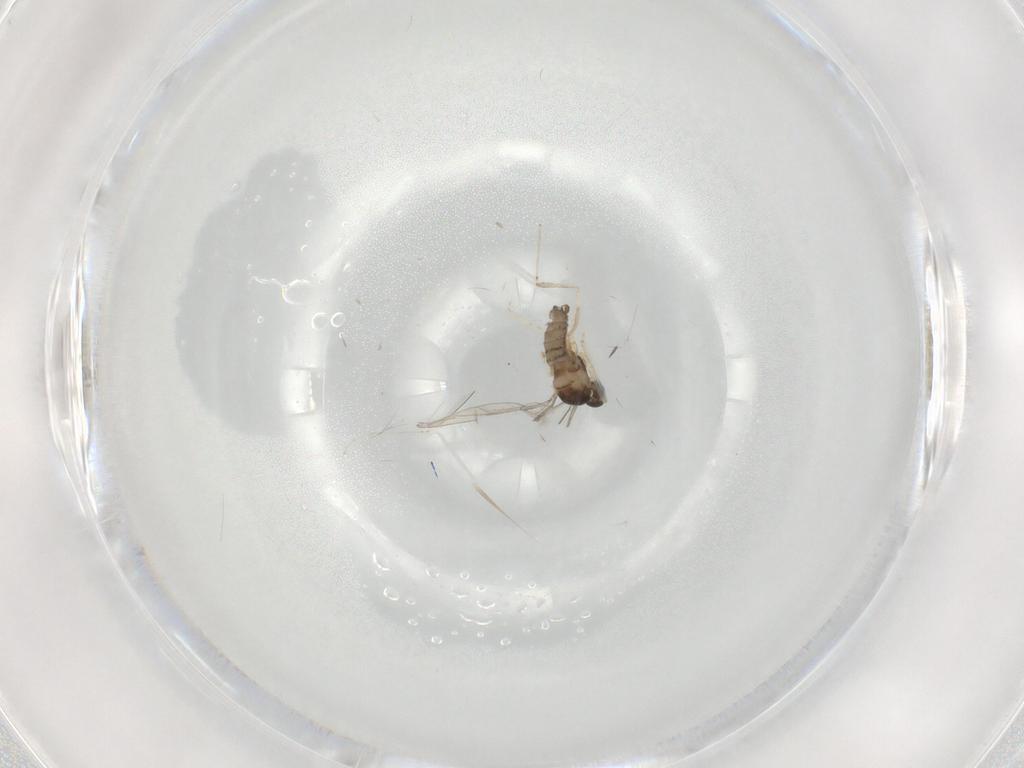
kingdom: Animalia
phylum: Arthropoda
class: Insecta
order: Diptera
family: Cecidomyiidae
